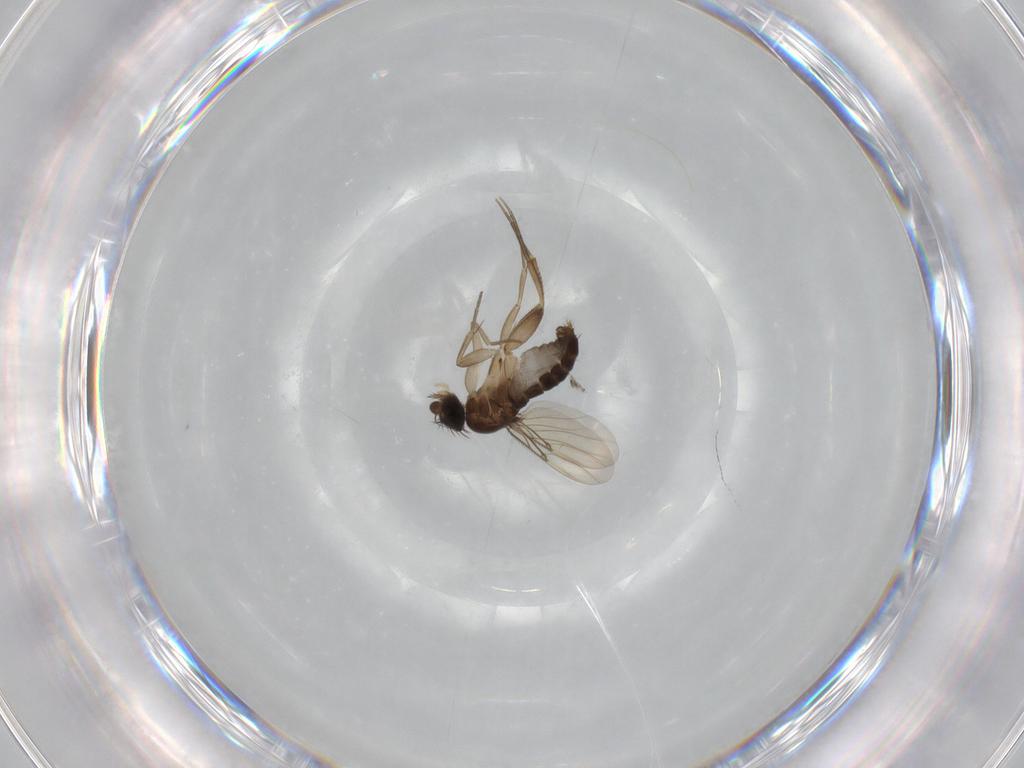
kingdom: Animalia
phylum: Arthropoda
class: Insecta
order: Diptera
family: Phoridae
